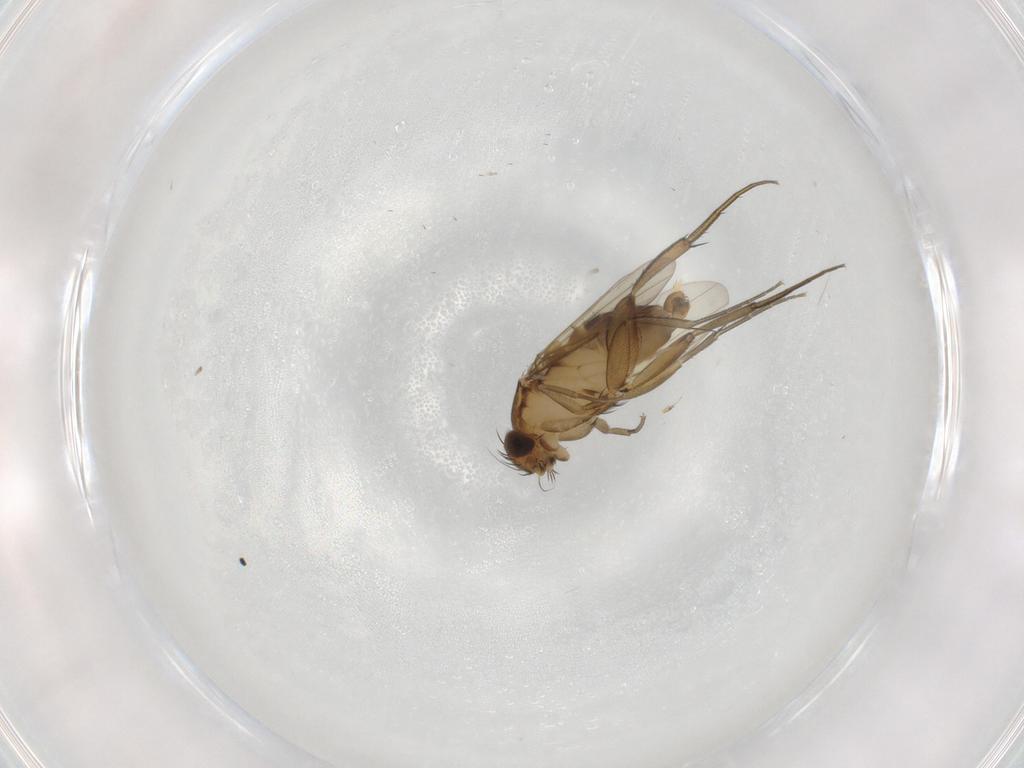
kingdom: Animalia
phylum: Arthropoda
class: Insecta
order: Diptera
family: Phoridae
